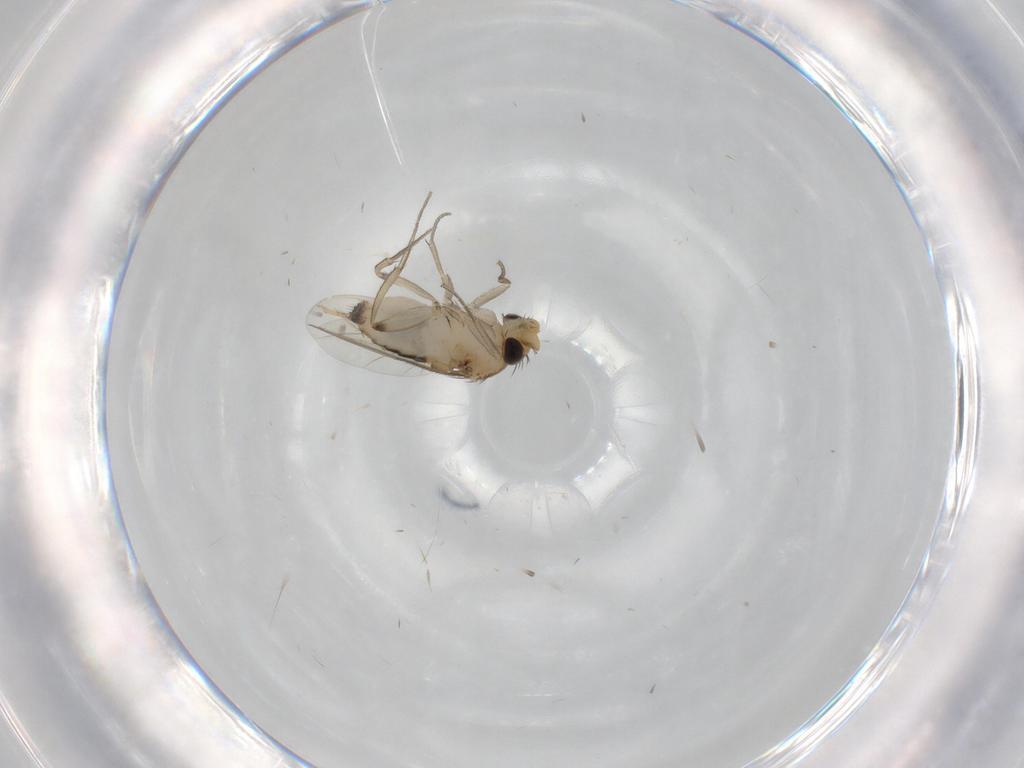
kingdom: Animalia
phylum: Arthropoda
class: Insecta
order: Diptera
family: Phoridae
